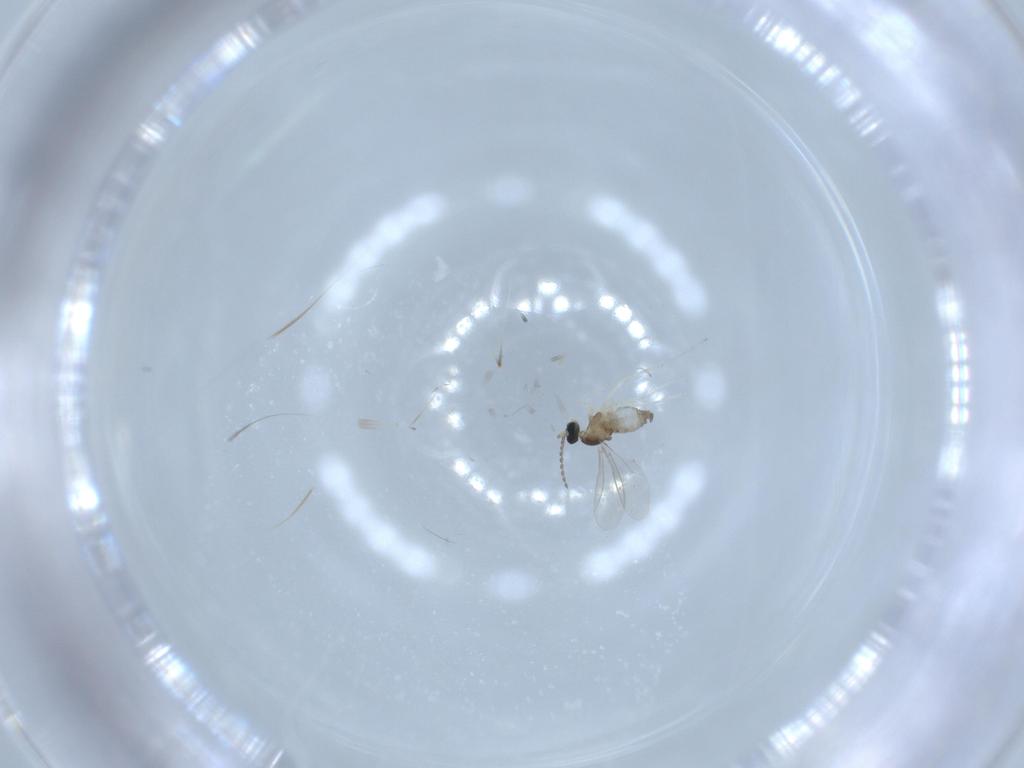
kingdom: Animalia
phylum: Arthropoda
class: Insecta
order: Diptera
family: Cecidomyiidae
